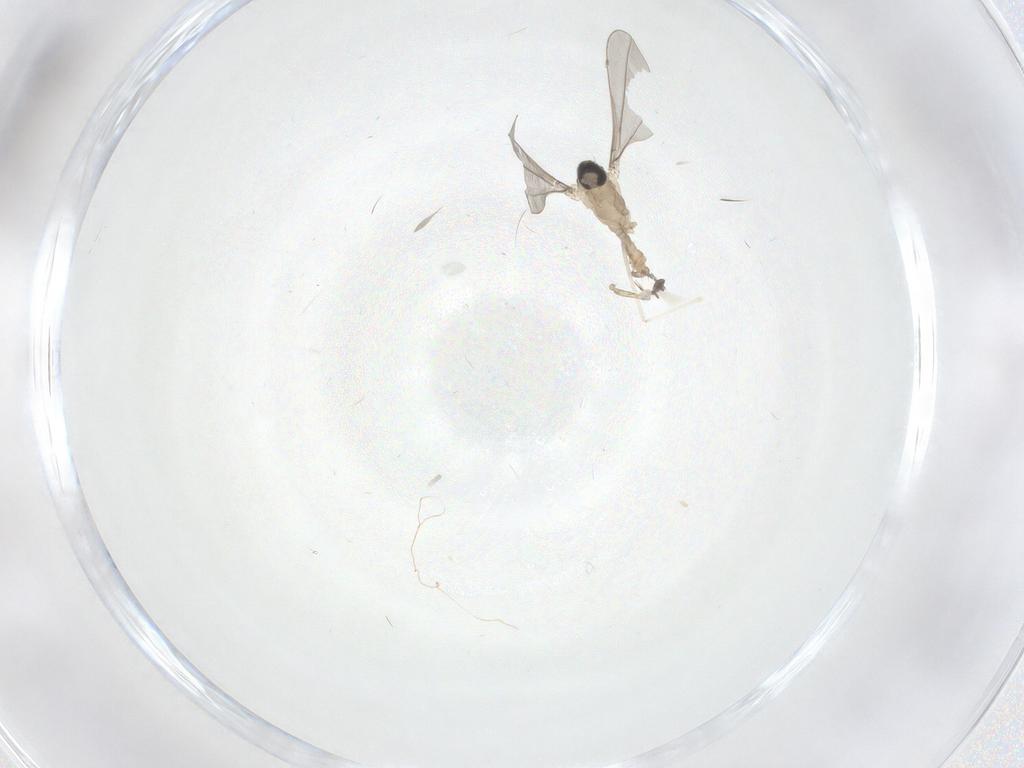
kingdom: Animalia
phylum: Arthropoda
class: Insecta
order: Diptera
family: Cecidomyiidae
